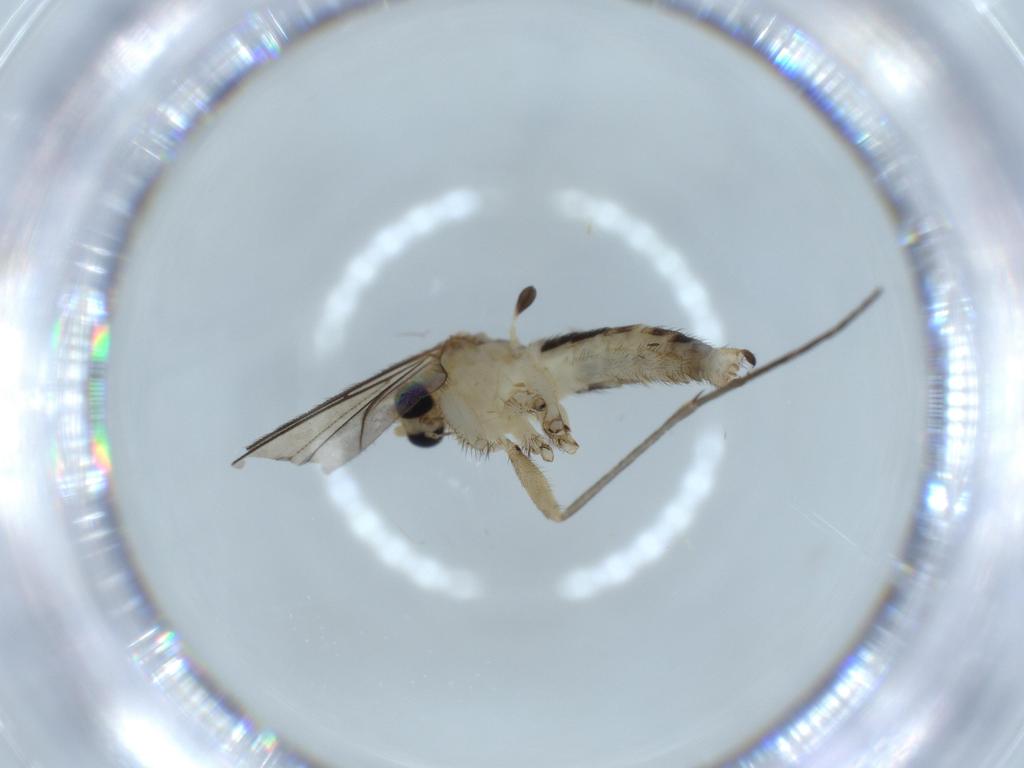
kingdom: Animalia
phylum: Arthropoda
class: Insecta
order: Diptera
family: Sciaridae
